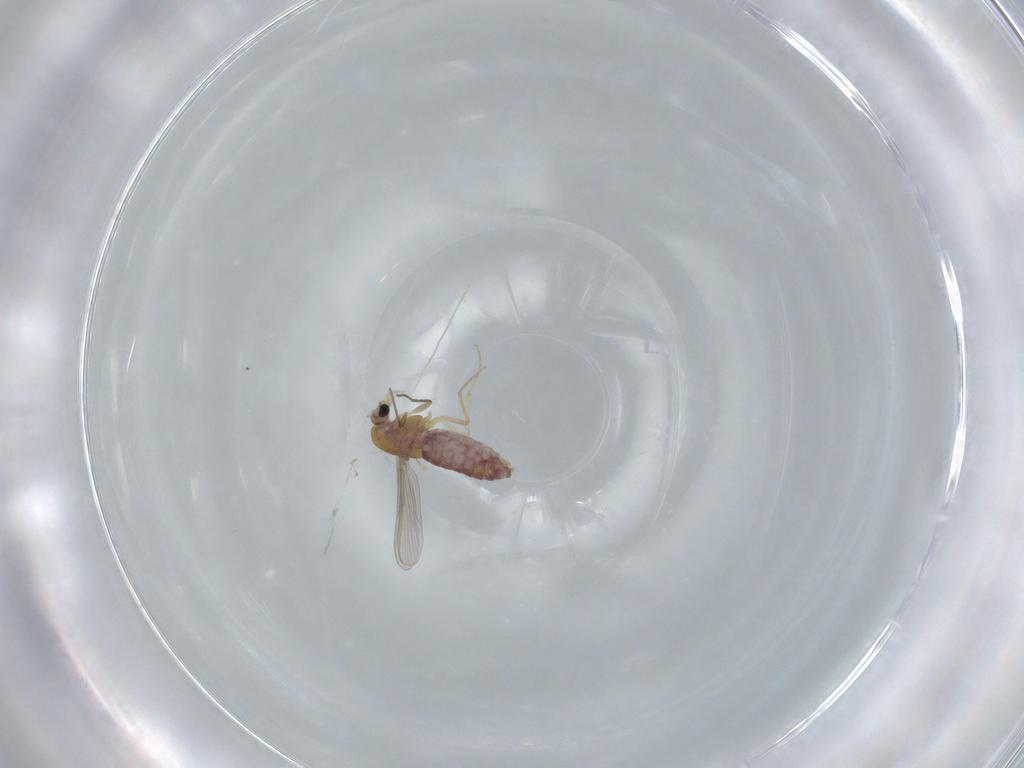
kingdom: Animalia
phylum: Arthropoda
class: Insecta
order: Diptera
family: Chironomidae
